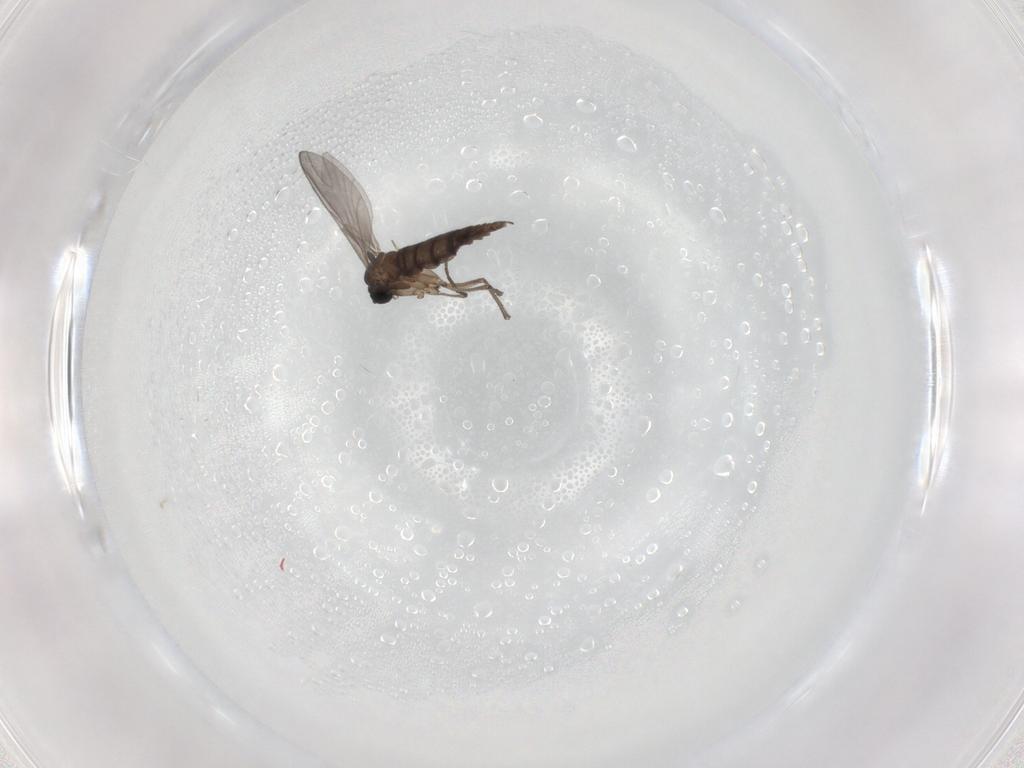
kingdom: Animalia
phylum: Arthropoda
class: Insecta
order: Diptera
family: Sciaridae
